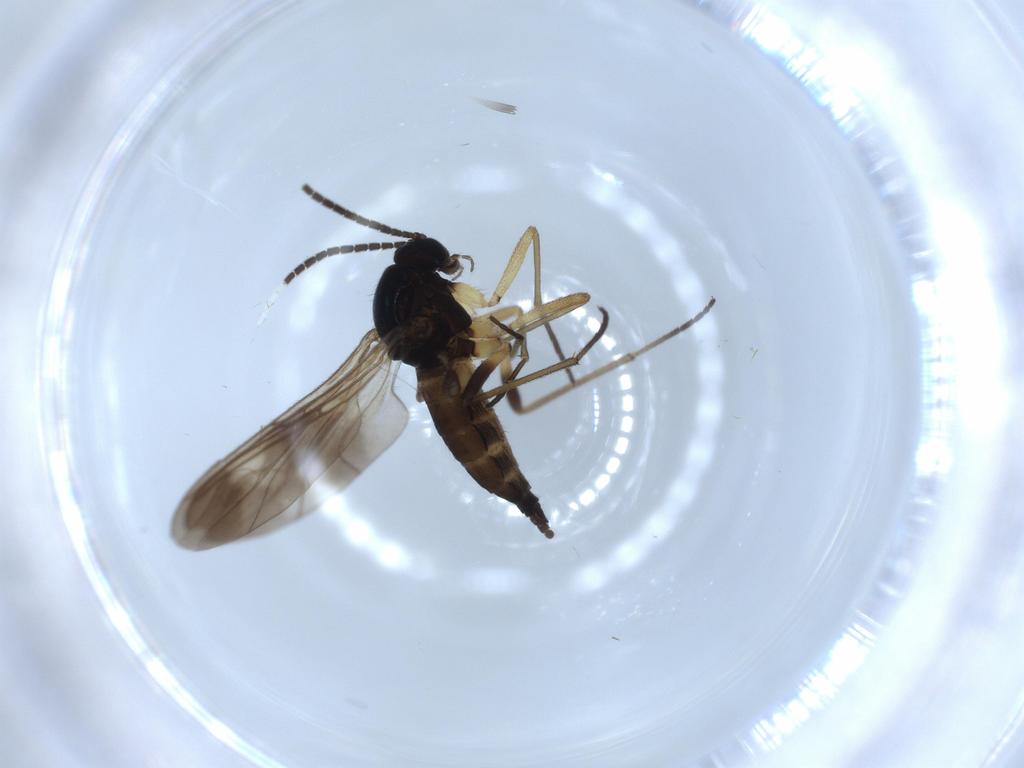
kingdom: Animalia
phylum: Arthropoda
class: Insecta
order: Diptera
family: Sciaridae
